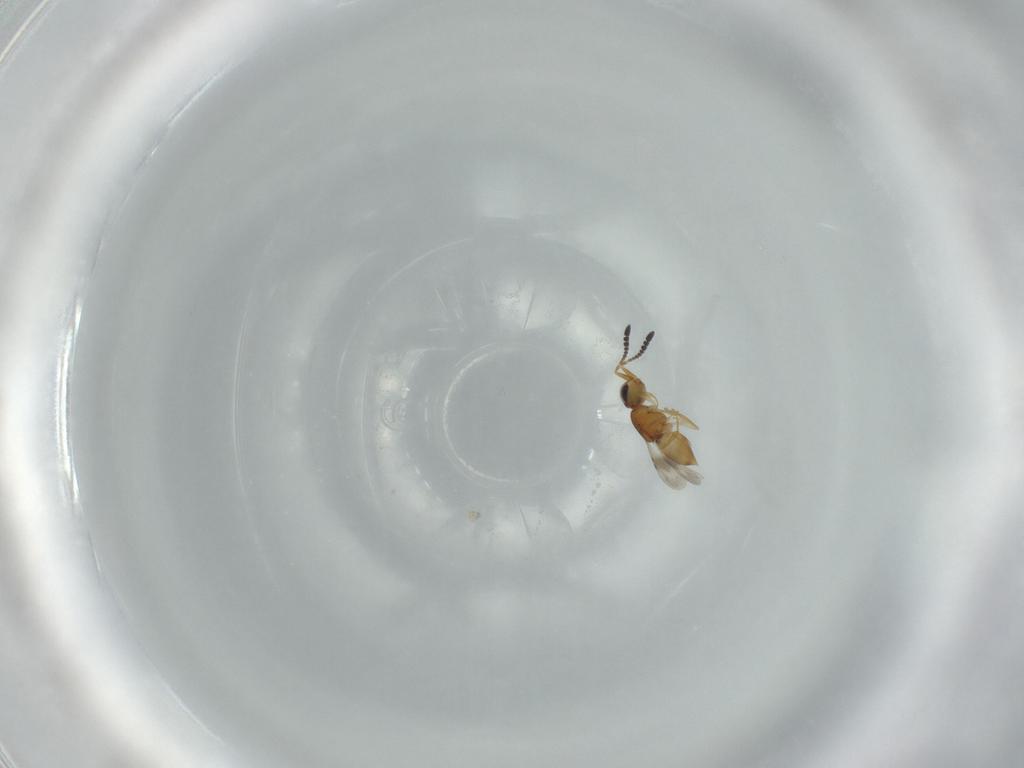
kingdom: Animalia
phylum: Arthropoda
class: Insecta
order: Hymenoptera
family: Ceraphronidae
